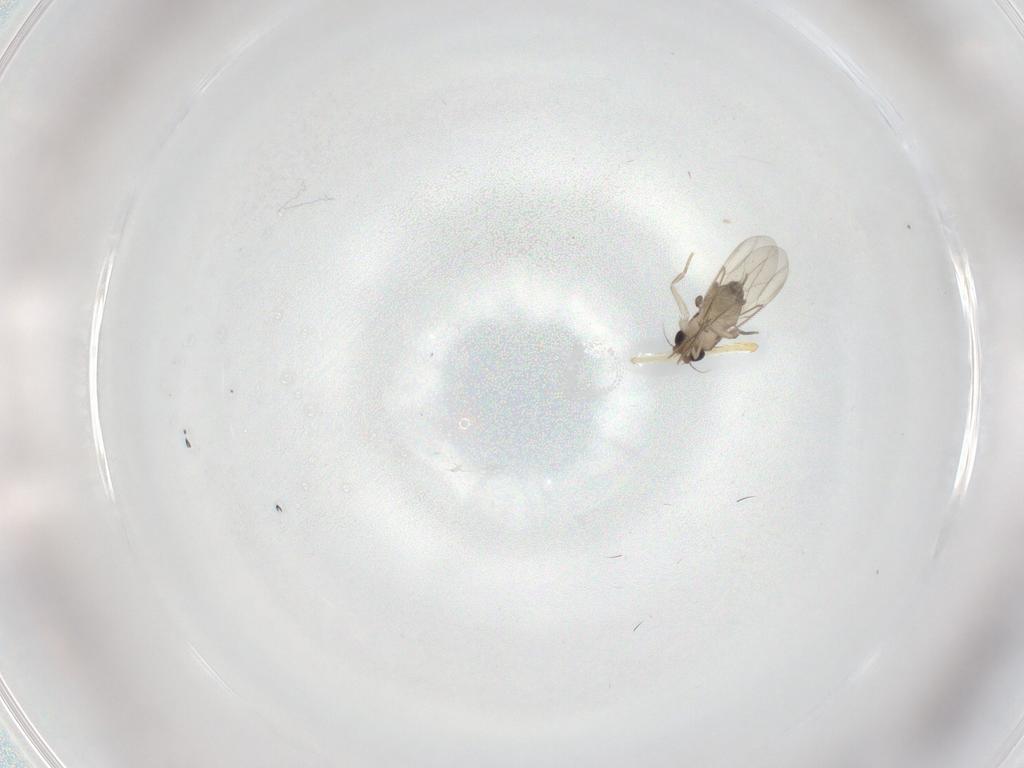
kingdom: Animalia
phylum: Arthropoda
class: Insecta
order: Diptera
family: Phoridae
